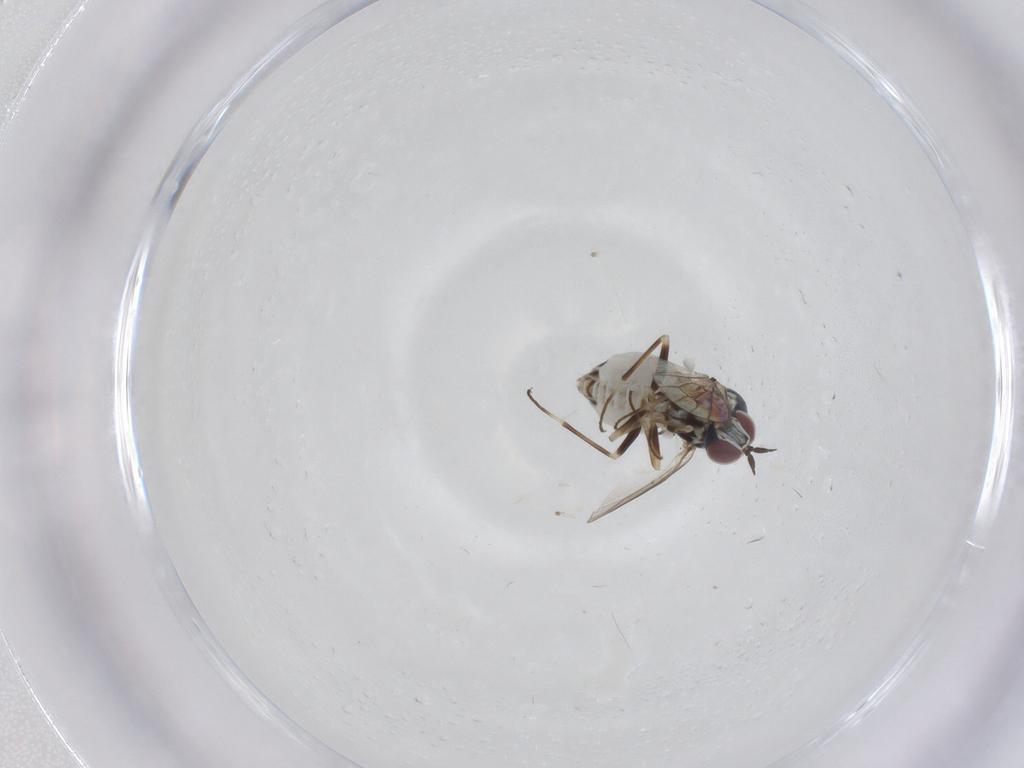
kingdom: Animalia
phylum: Arthropoda
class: Insecta
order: Diptera
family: Bombyliidae
